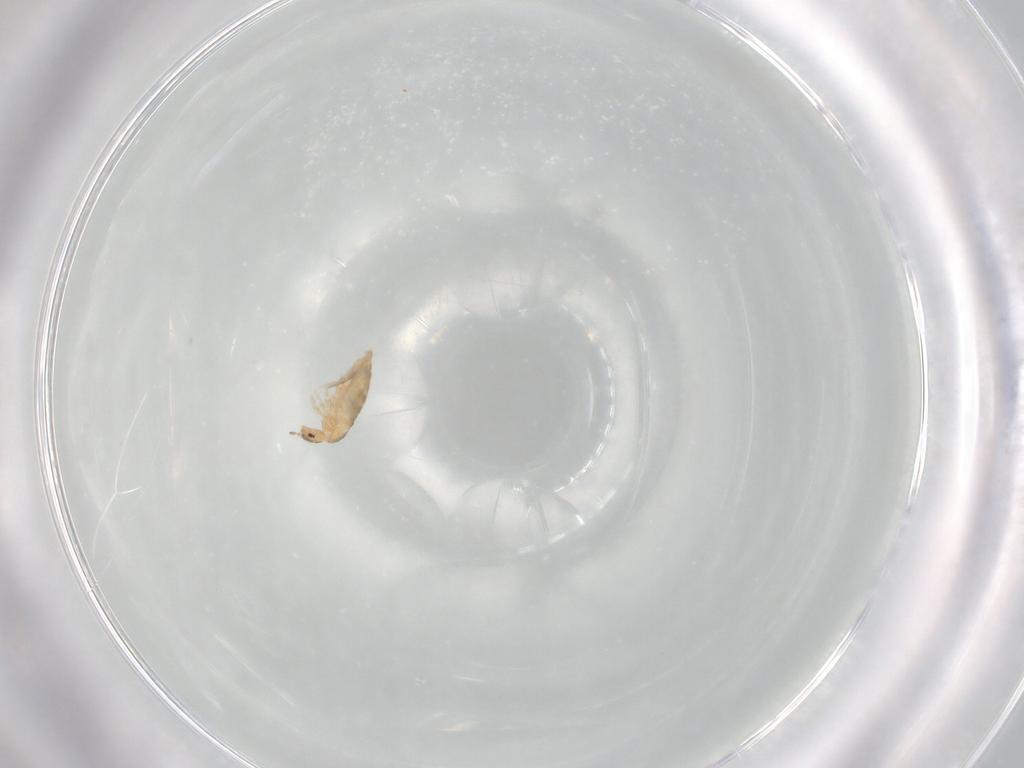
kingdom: Animalia
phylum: Arthropoda
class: Collembola
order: Entomobryomorpha
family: Entomobryidae
